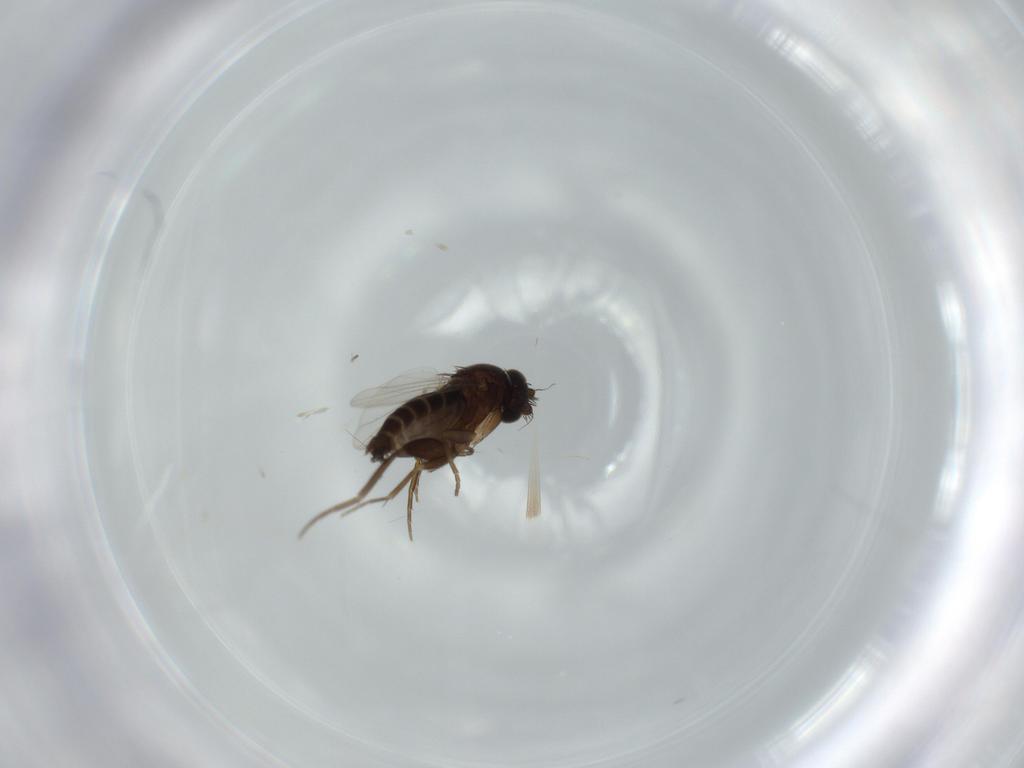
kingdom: Animalia
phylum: Arthropoda
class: Insecta
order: Diptera
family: Phoridae
